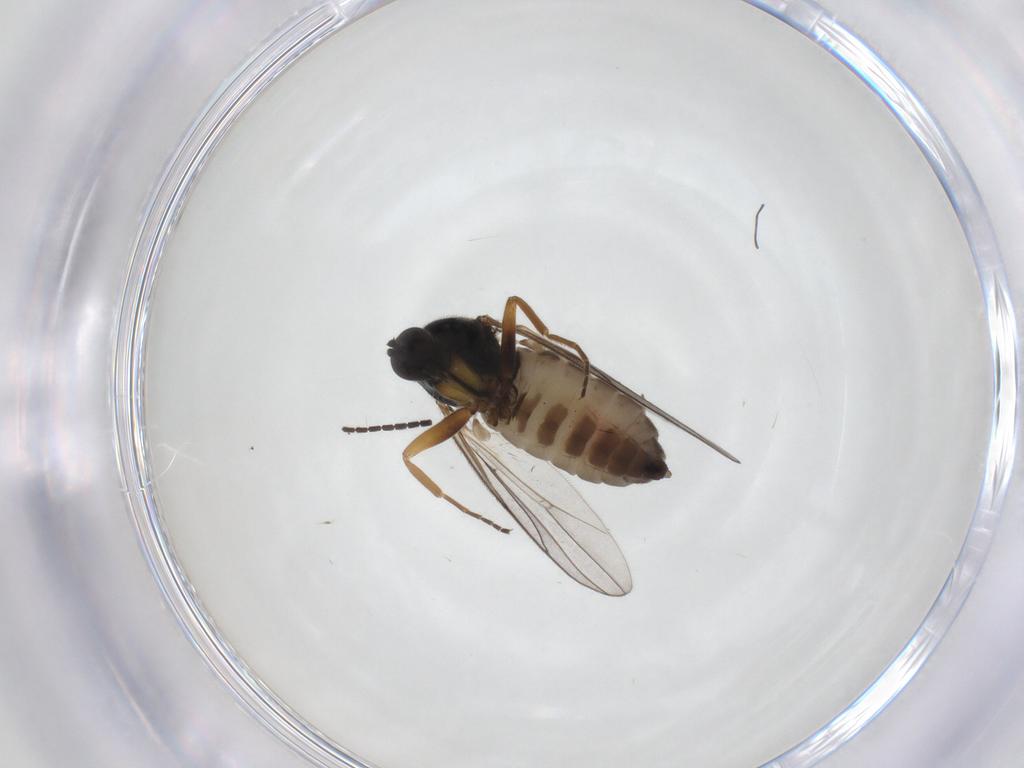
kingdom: Animalia
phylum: Arthropoda
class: Insecta
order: Diptera
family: Hybotidae
